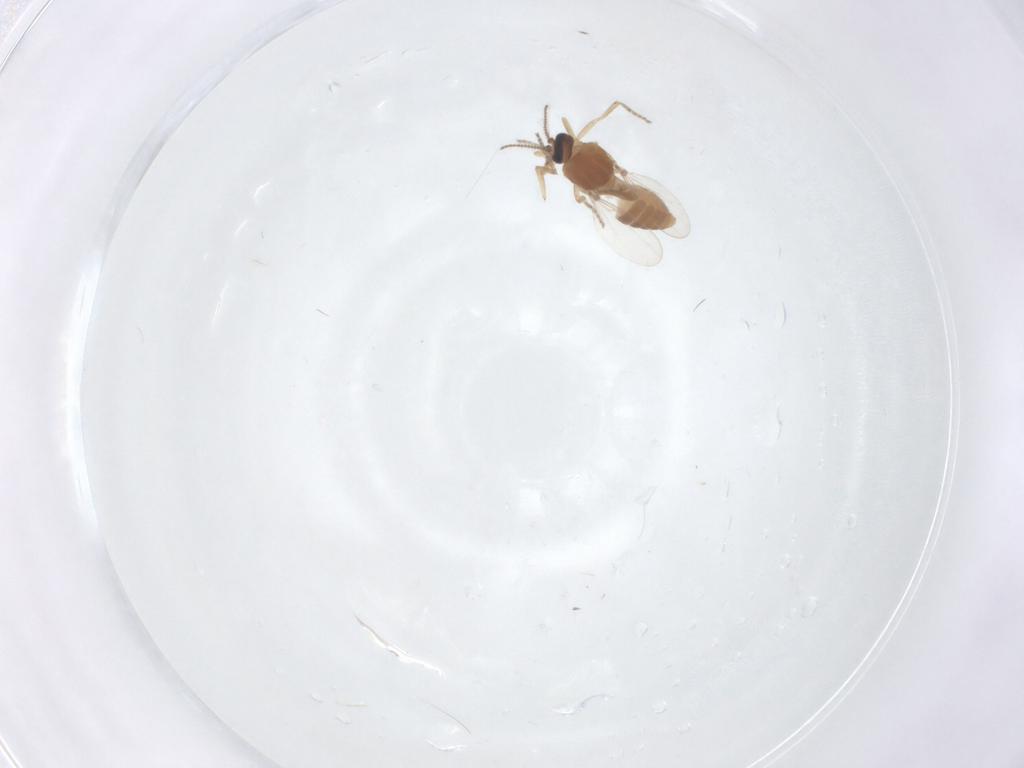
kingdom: Animalia
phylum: Arthropoda
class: Insecta
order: Diptera
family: Ceratopogonidae
